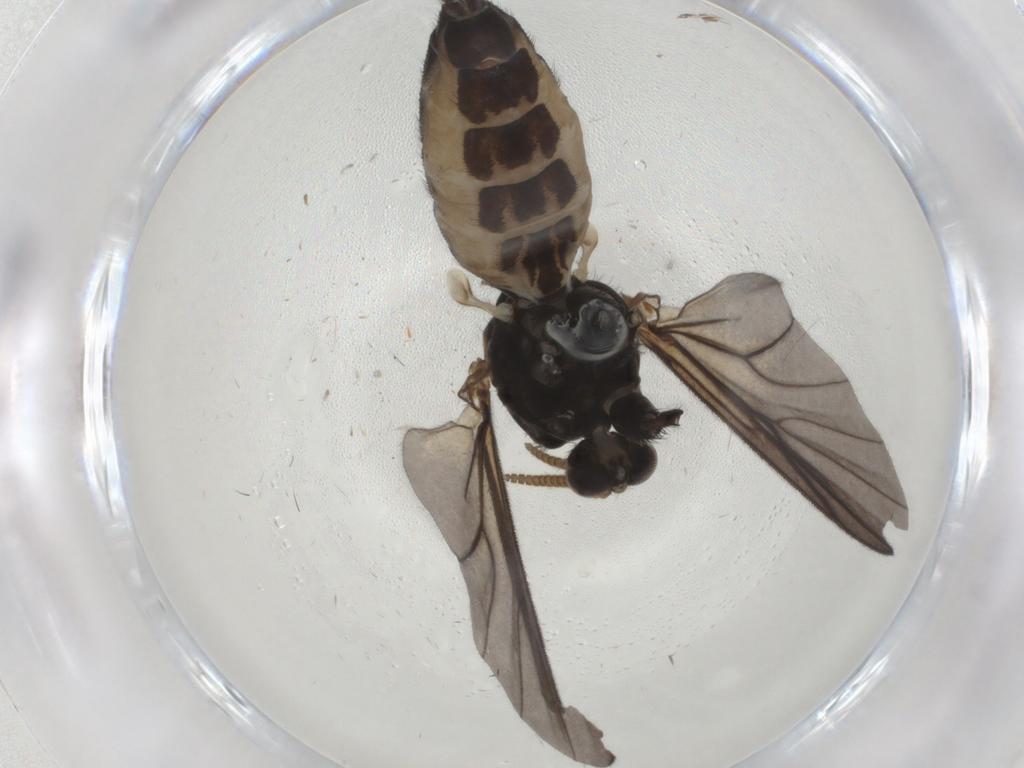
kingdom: Animalia
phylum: Arthropoda
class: Insecta
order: Diptera
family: Mycetophilidae
